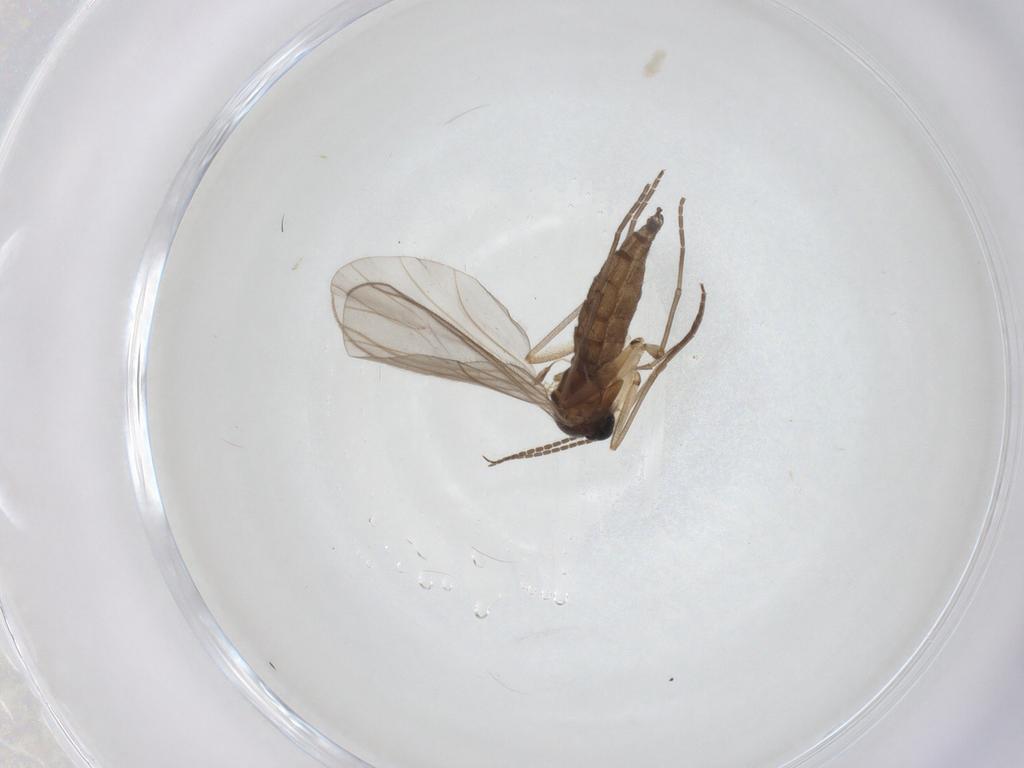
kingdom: Animalia
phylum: Arthropoda
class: Insecta
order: Diptera
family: Sciaridae
